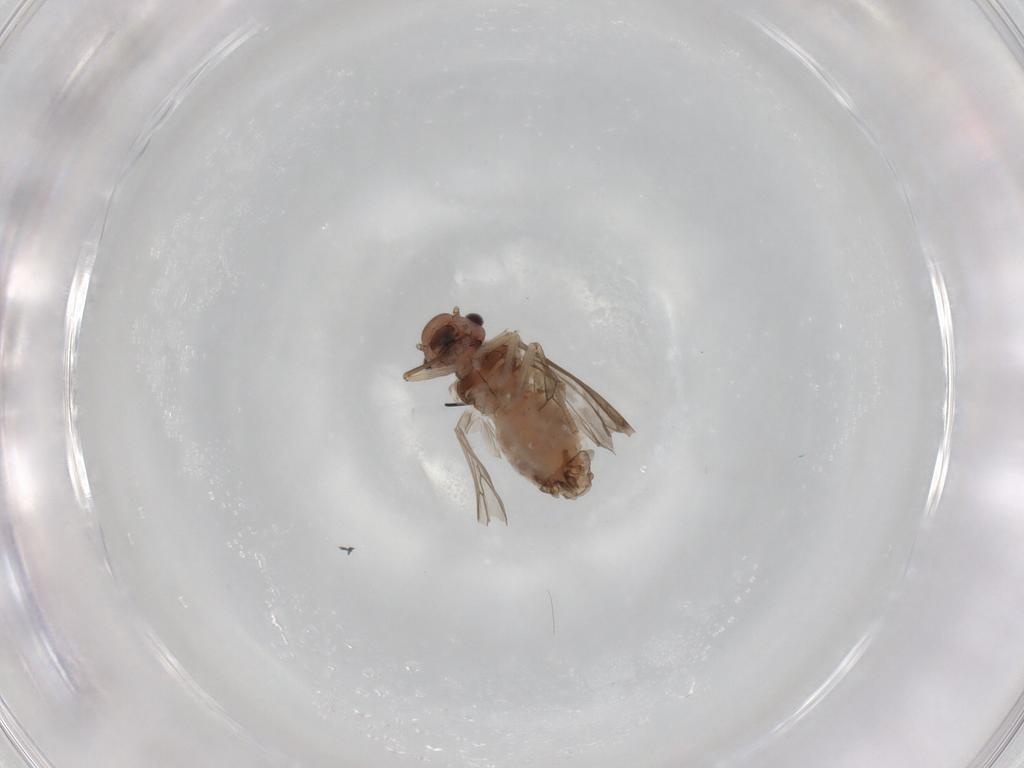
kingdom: Animalia
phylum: Arthropoda
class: Insecta
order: Psocodea
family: Peripsocidae
